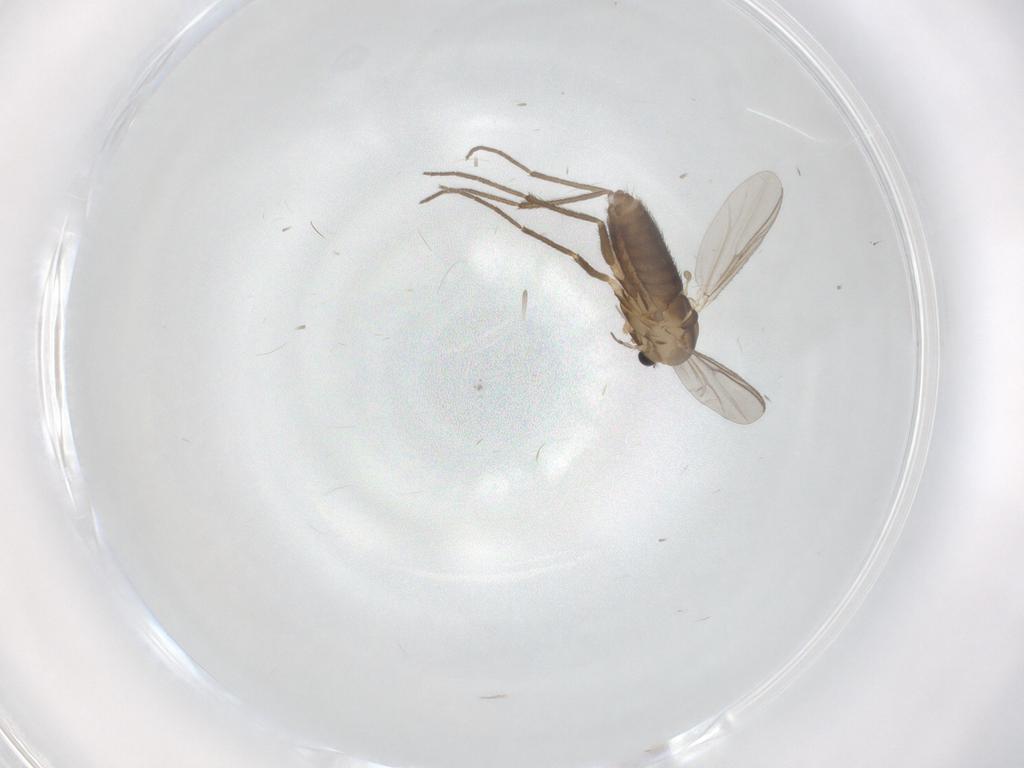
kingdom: Animalia
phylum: Arthropoda
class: Insecta
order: Diptera
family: Chironomidae
